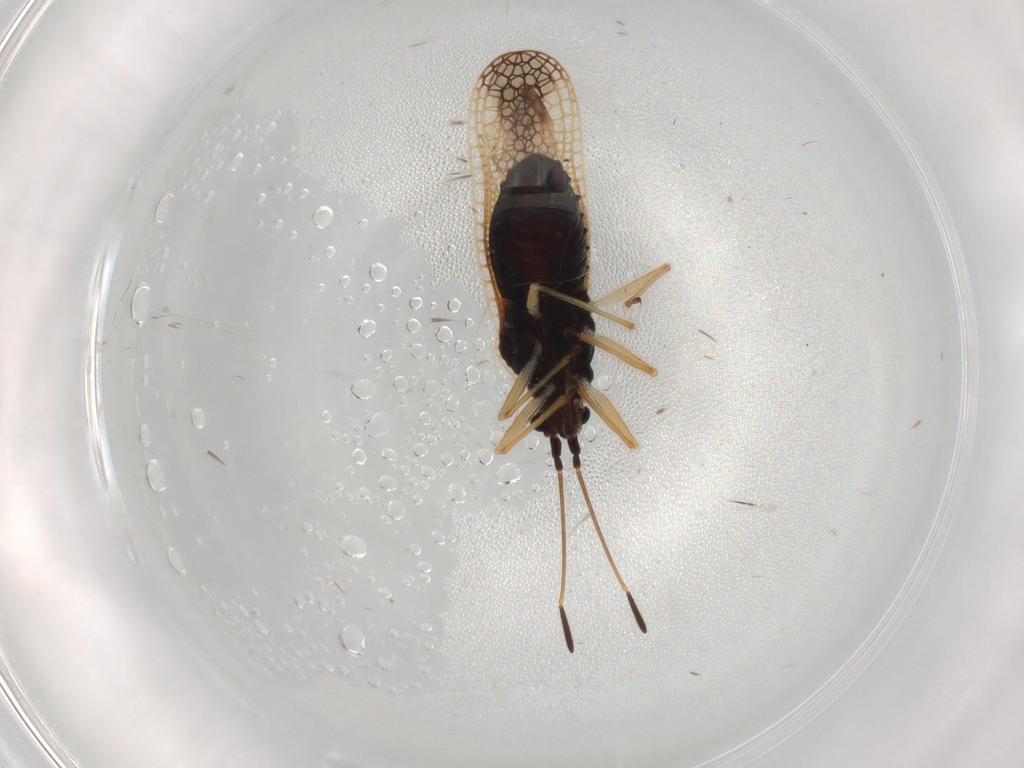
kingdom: Animalia
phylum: Arthropoda
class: Insecta
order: Hemiptera
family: Tingidae
